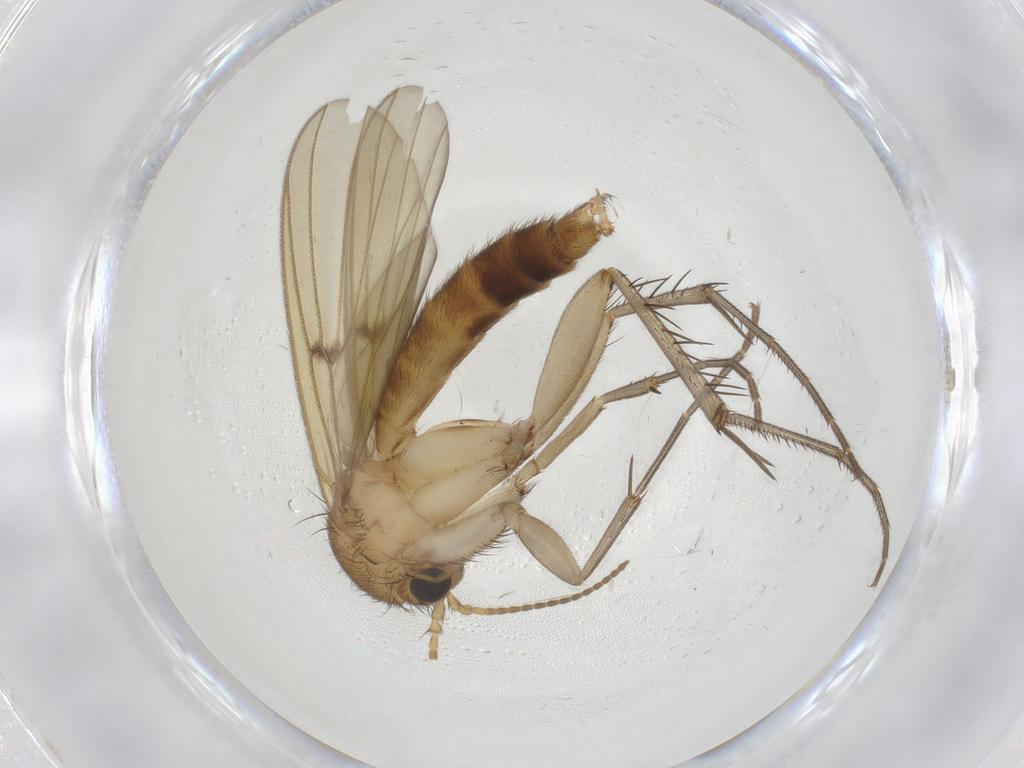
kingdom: Animalia
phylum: Arthropoda
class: Insecta
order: Diptera
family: Mycetophilidae
